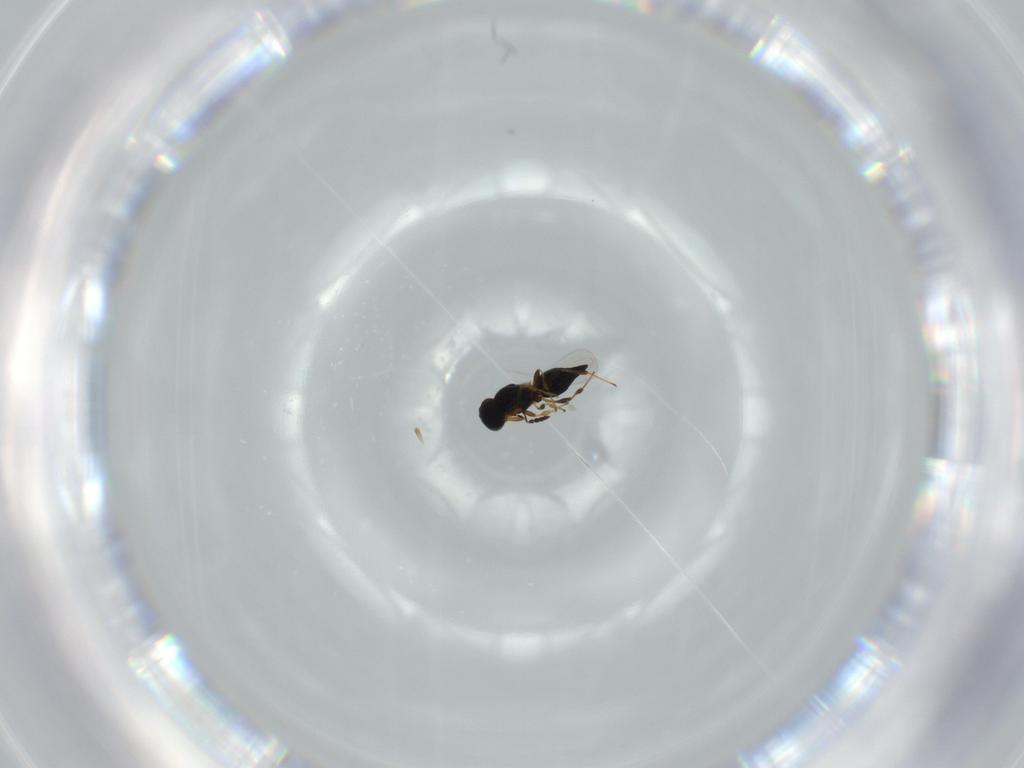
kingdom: Animalia
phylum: Arthropoda
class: Insecta
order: Hymenoptera
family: Platygastridae
